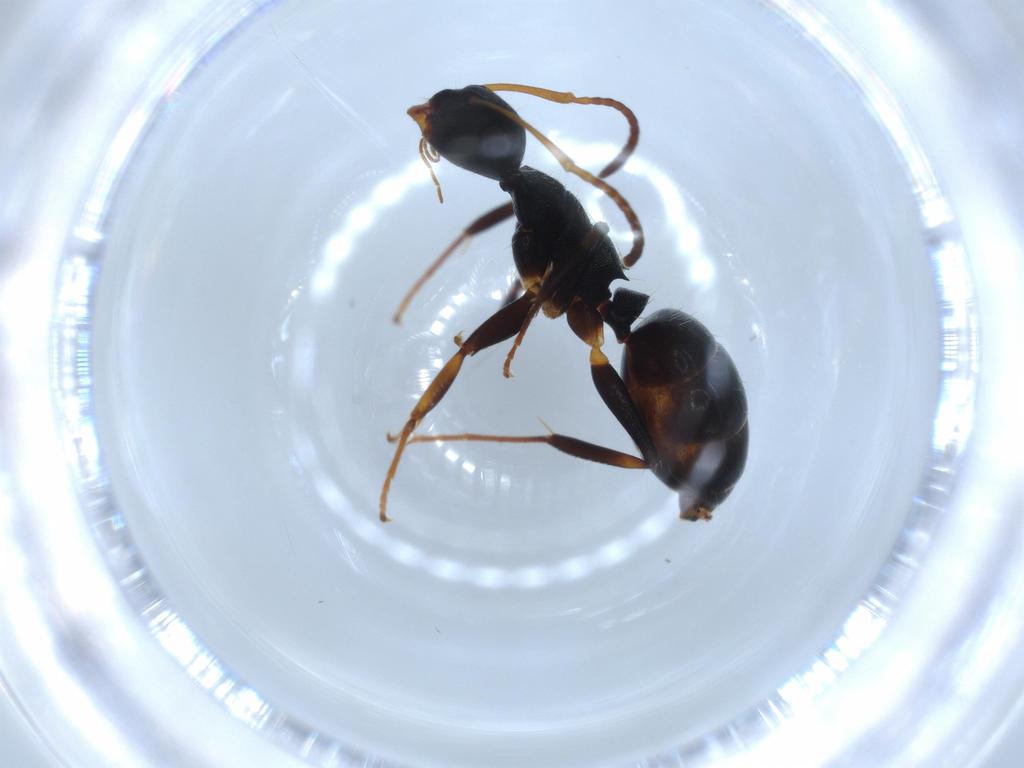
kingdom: Animalia
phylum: Arthropoda
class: Insecta
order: Hymenoptera
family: Formicidae
